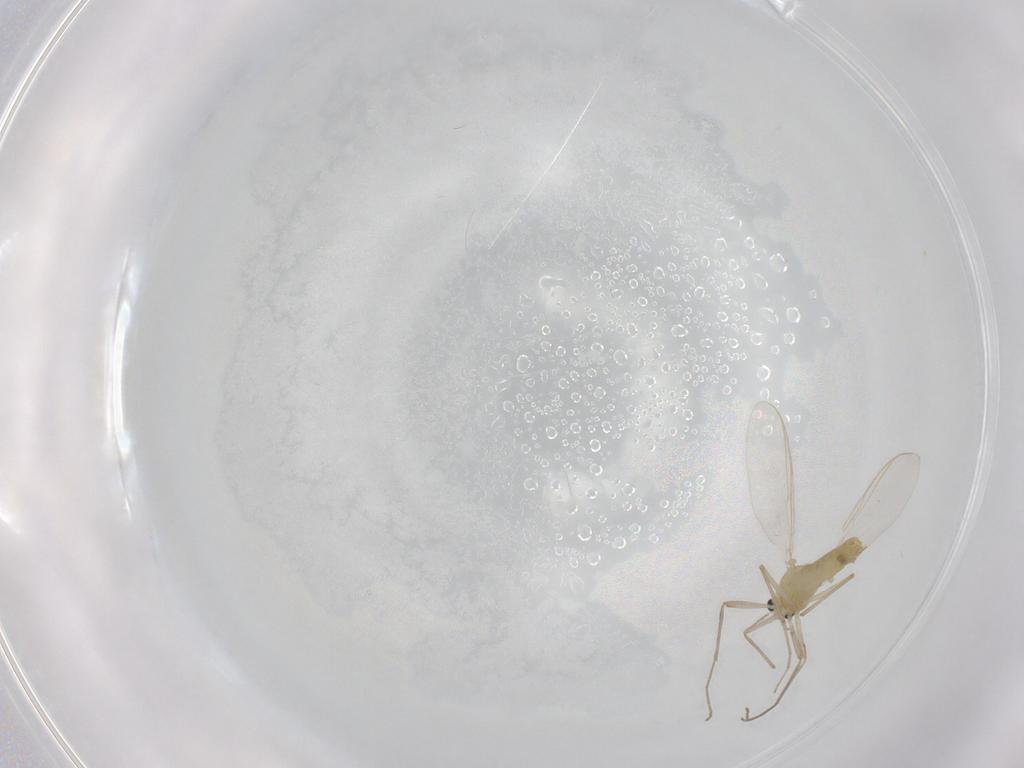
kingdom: Animalia
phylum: Arthropoda
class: Insecta
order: Diptera
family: Chironomidae
